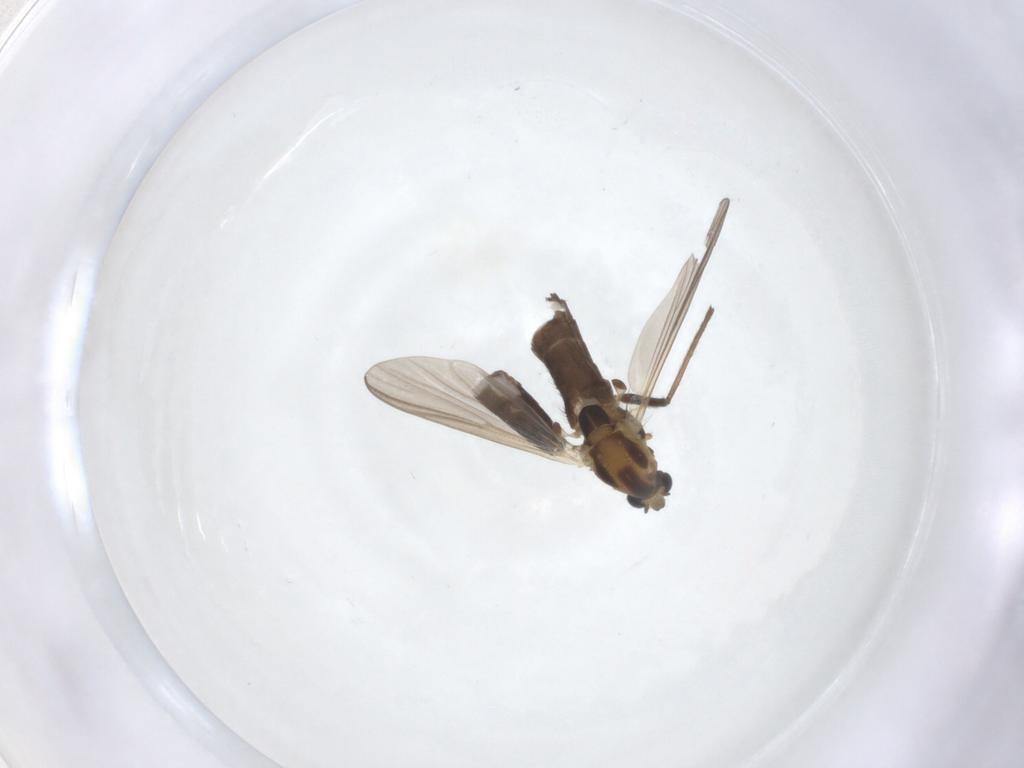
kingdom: Animalia
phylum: Arthropoda
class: Insecta
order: Diptera
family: Chironomidae
